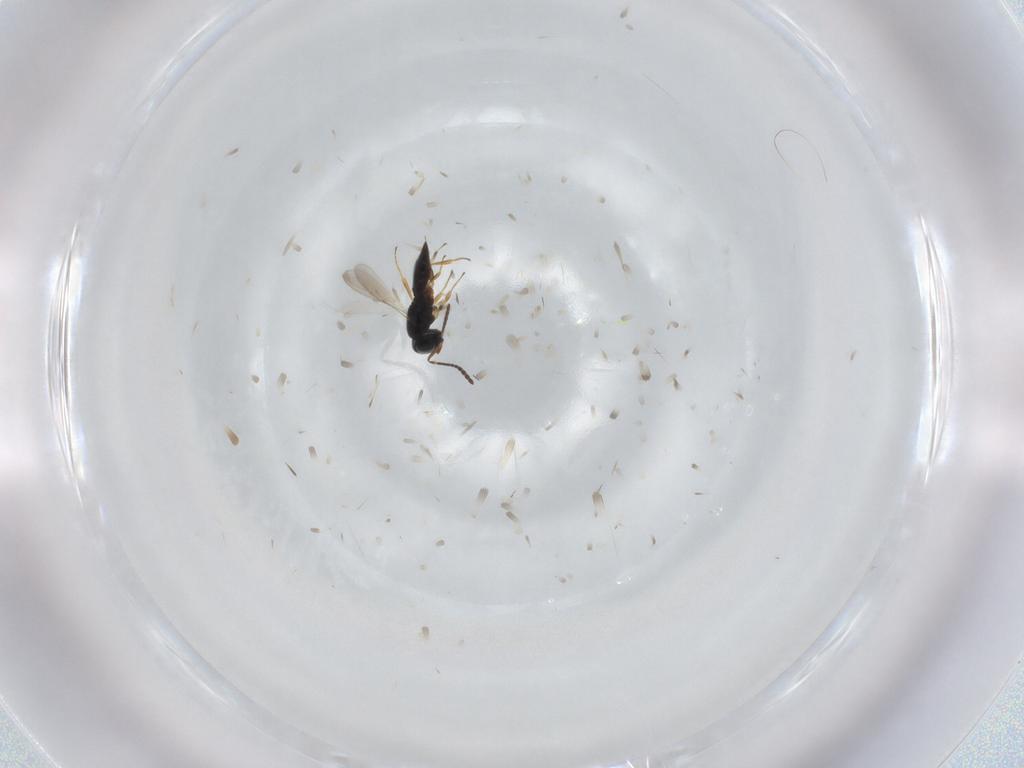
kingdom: Animalia
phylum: Arthropoda
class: Insecta
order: Hymenoptera
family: Scelionidae
